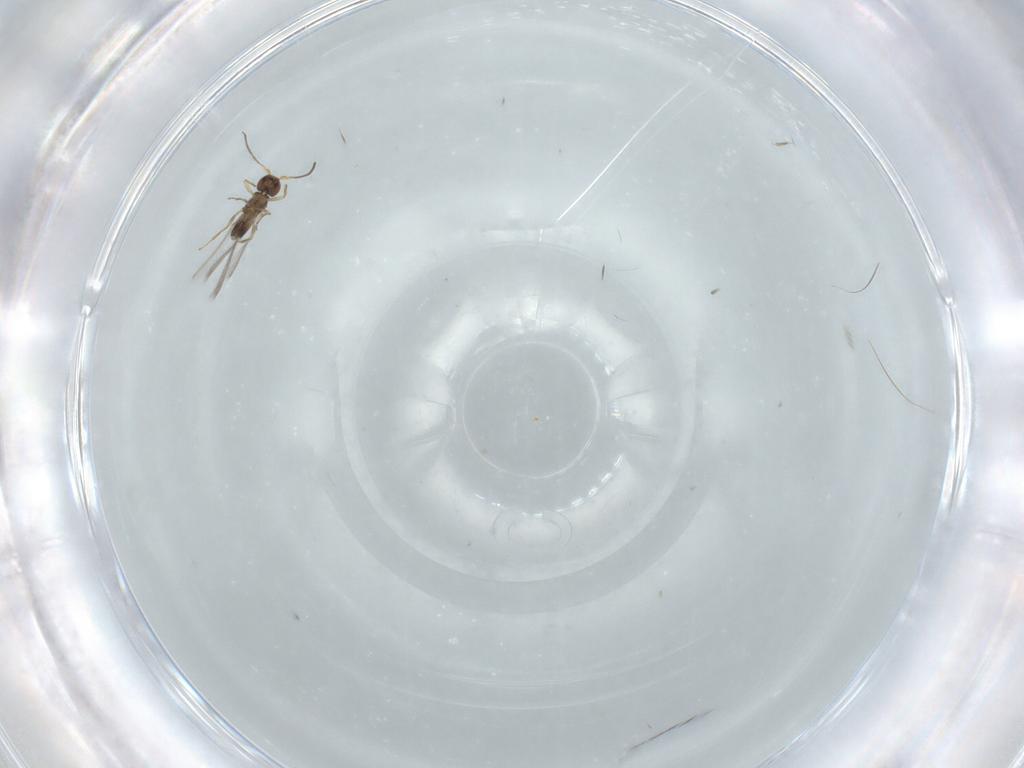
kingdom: Animalia
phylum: Arthropoda
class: Insecta
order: Hymenoptera
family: Mymaridae
